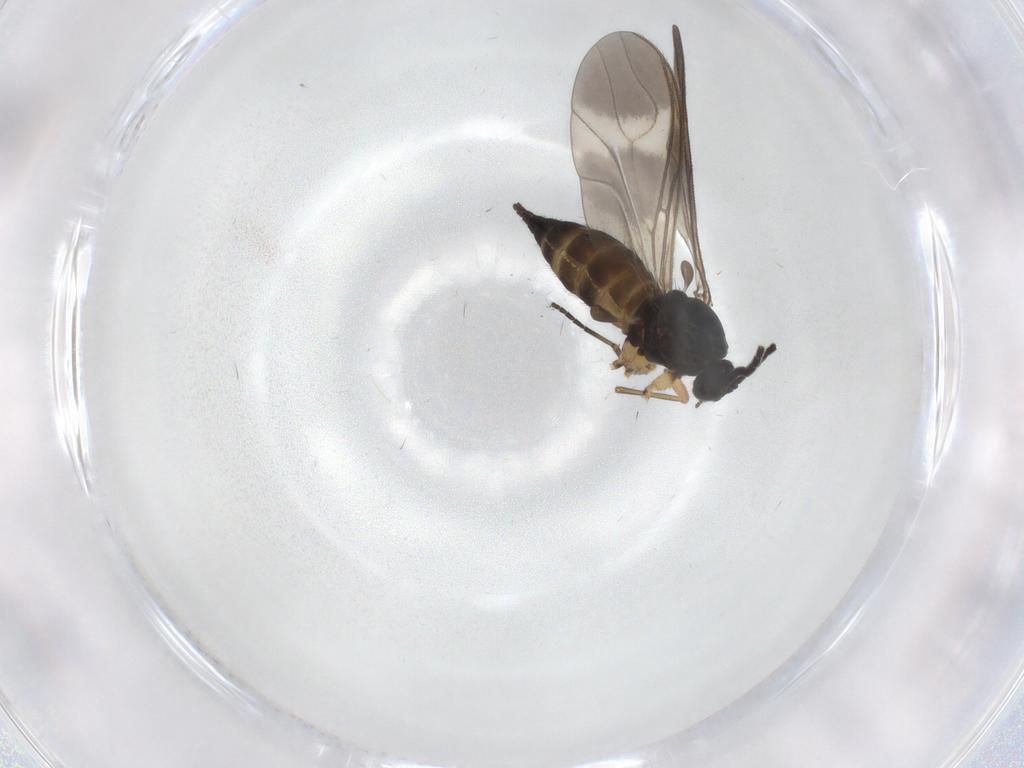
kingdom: Animalia
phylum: Arthropoda
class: Insecta
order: Diptera
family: Sciaridae
